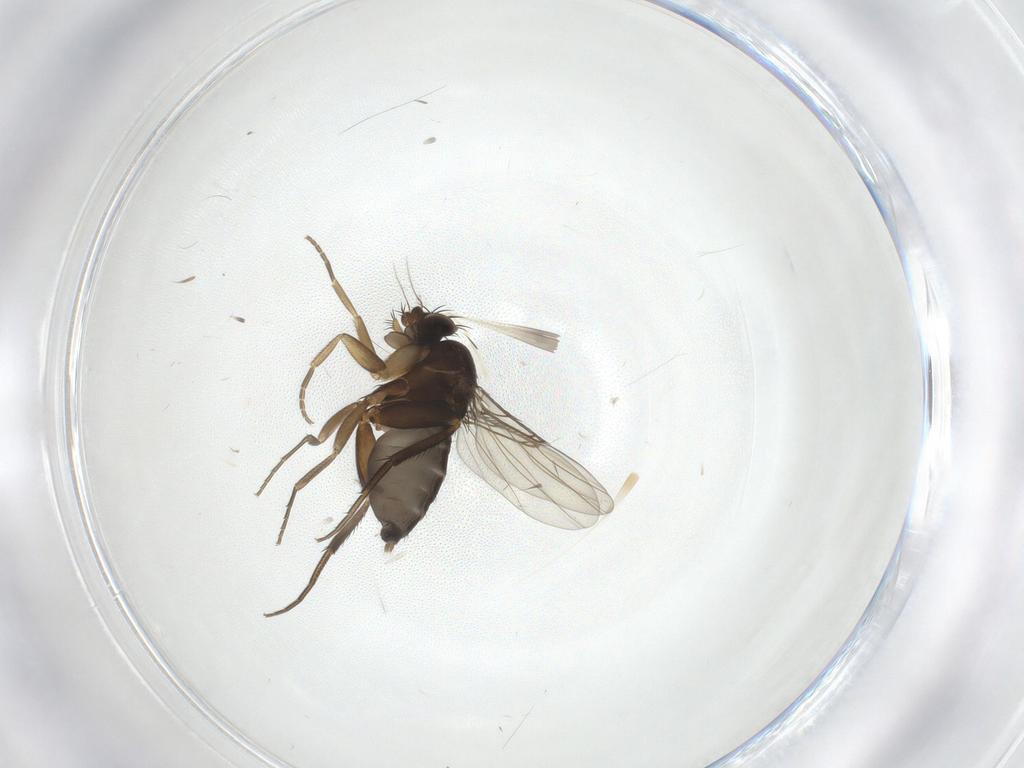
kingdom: Animalia
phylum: Arthropoda
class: Insecta
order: Diptera
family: Phoridae
